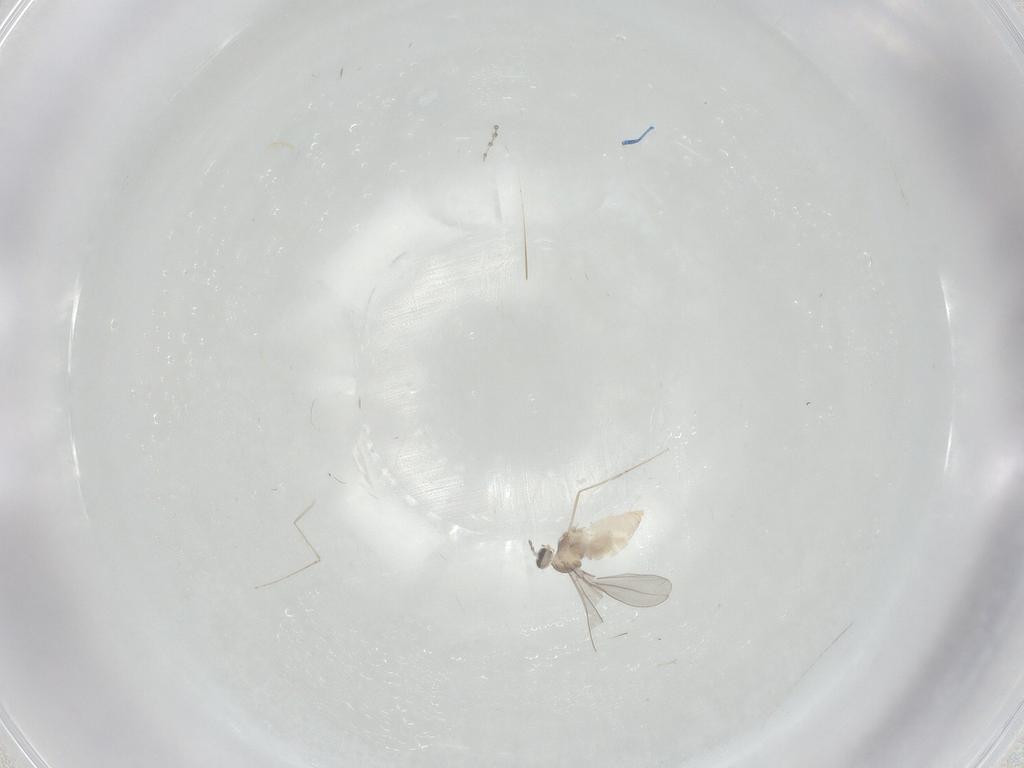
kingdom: Animalia
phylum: Arthropoda
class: Insecta
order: Diptera
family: Cecidomyiidae
